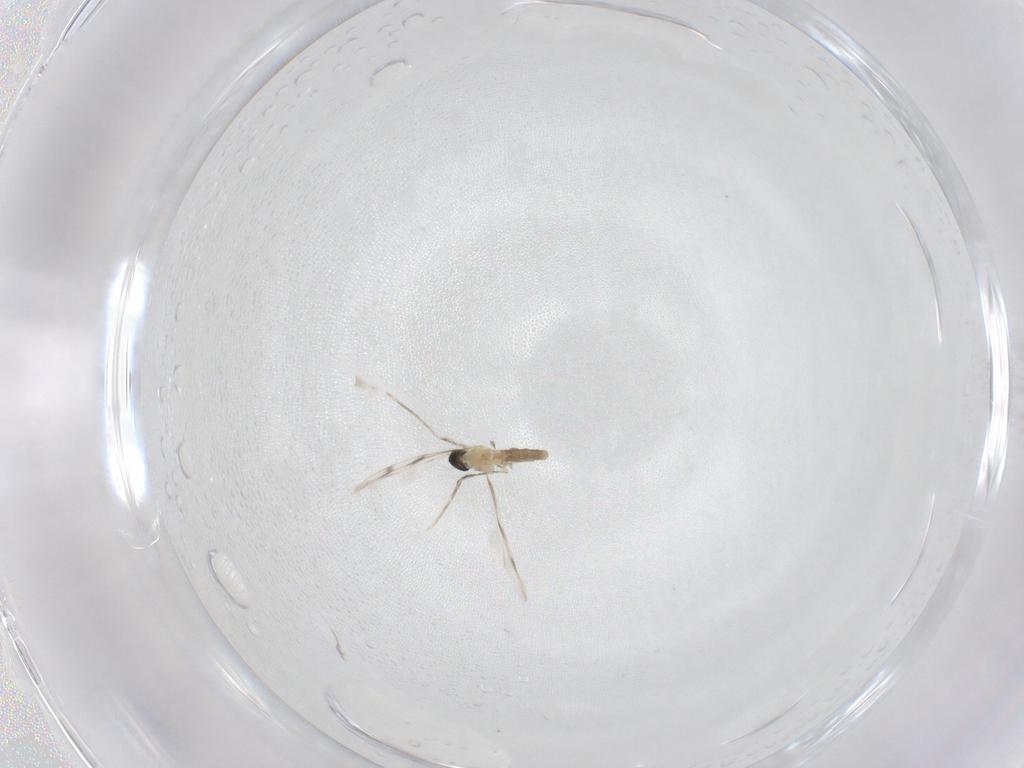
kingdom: Animalia
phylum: Arthropoda
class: Insecta
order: Diptera
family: Cecidomyiidae
